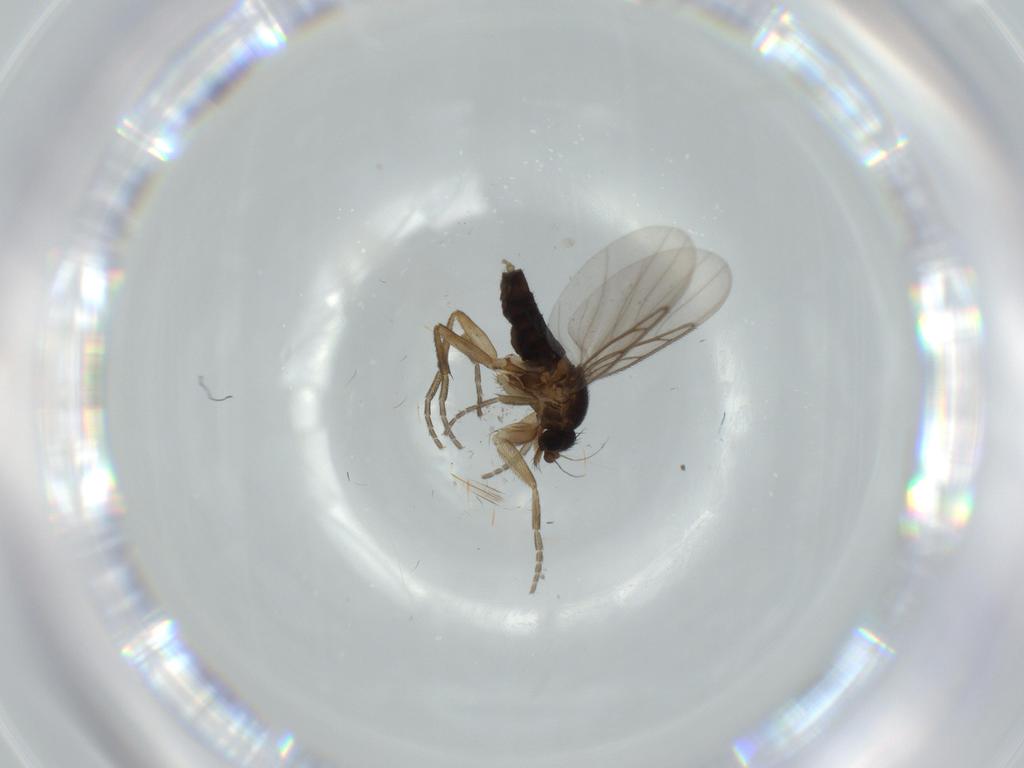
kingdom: Animalia
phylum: Arthropoda
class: Insecta
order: Diptera
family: Phoridae
